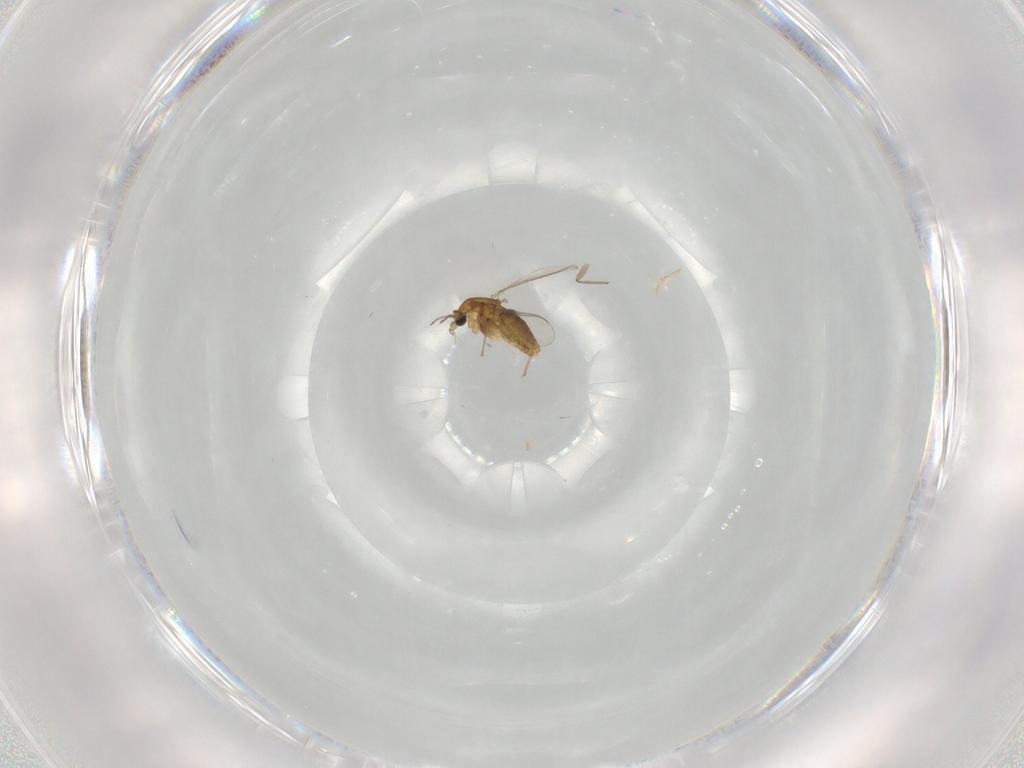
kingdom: Animalia
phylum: Arthropoda
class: Insecta
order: Diptera
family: Chironomidae
